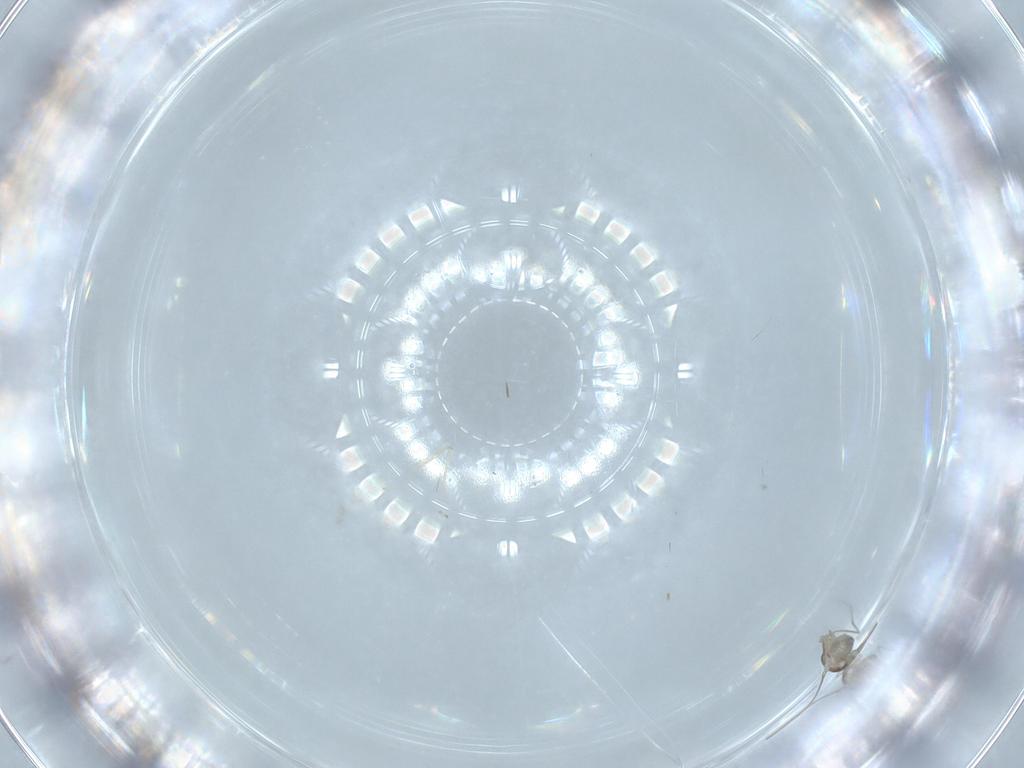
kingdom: Animalia
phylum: Arthropoda
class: Insecta
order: Diptera
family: Cecidomyiidae
